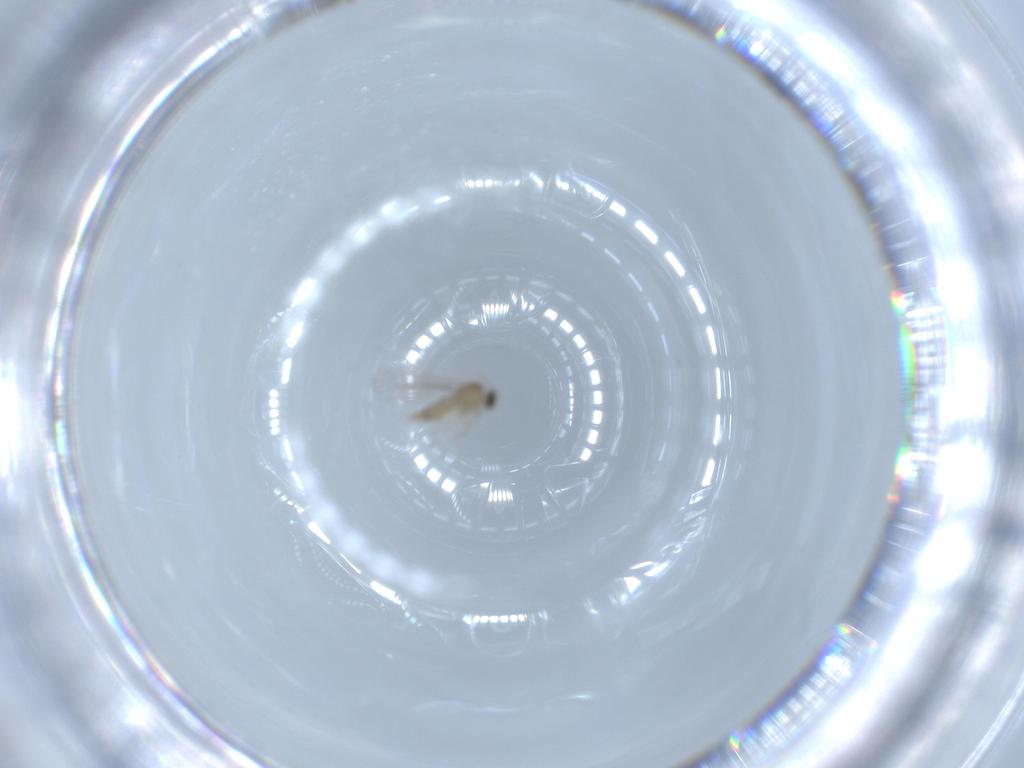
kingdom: Animalia
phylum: Arthropoda
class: Insecta
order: Diptera
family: Cecidomyiidae
